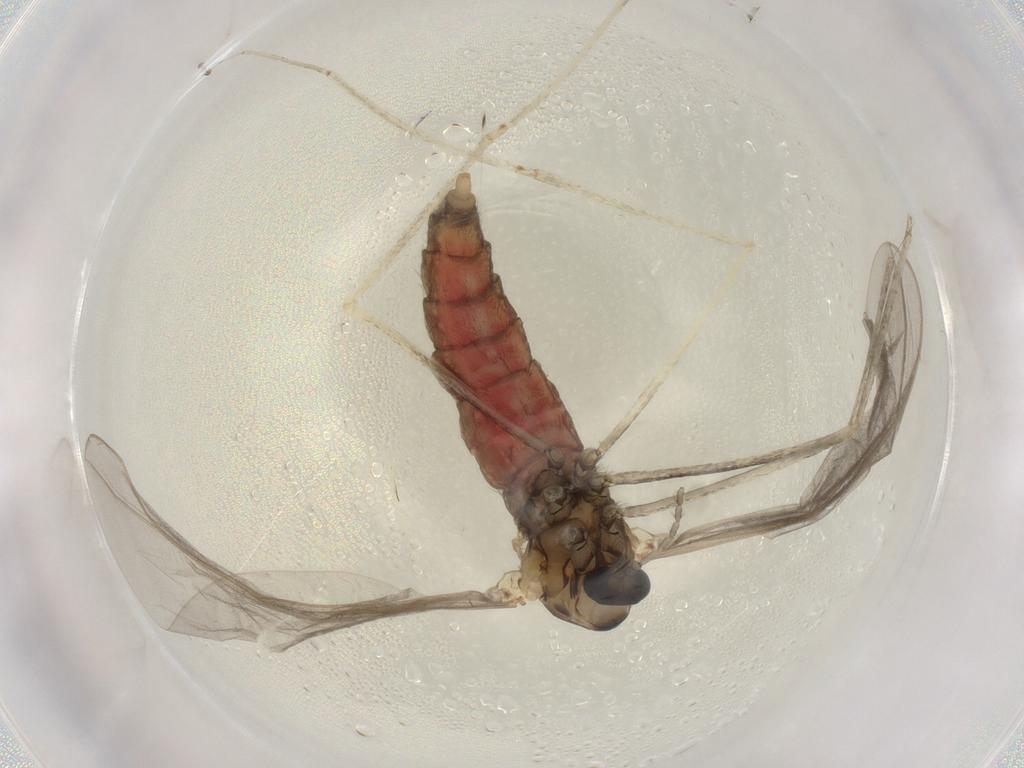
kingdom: Animalia
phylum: Arthropoda
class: Insecta
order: Diptera
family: Cecidomyiidae
